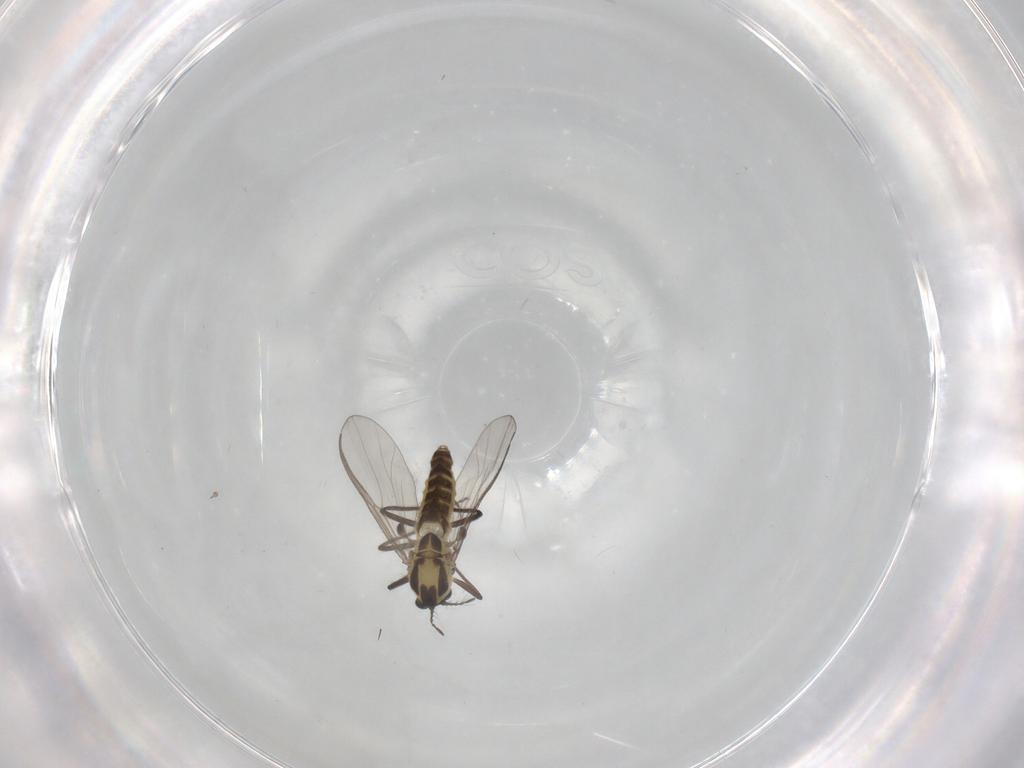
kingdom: Animalia
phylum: Arthropoda
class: Insecta
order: Diptera
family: Chironomidae
